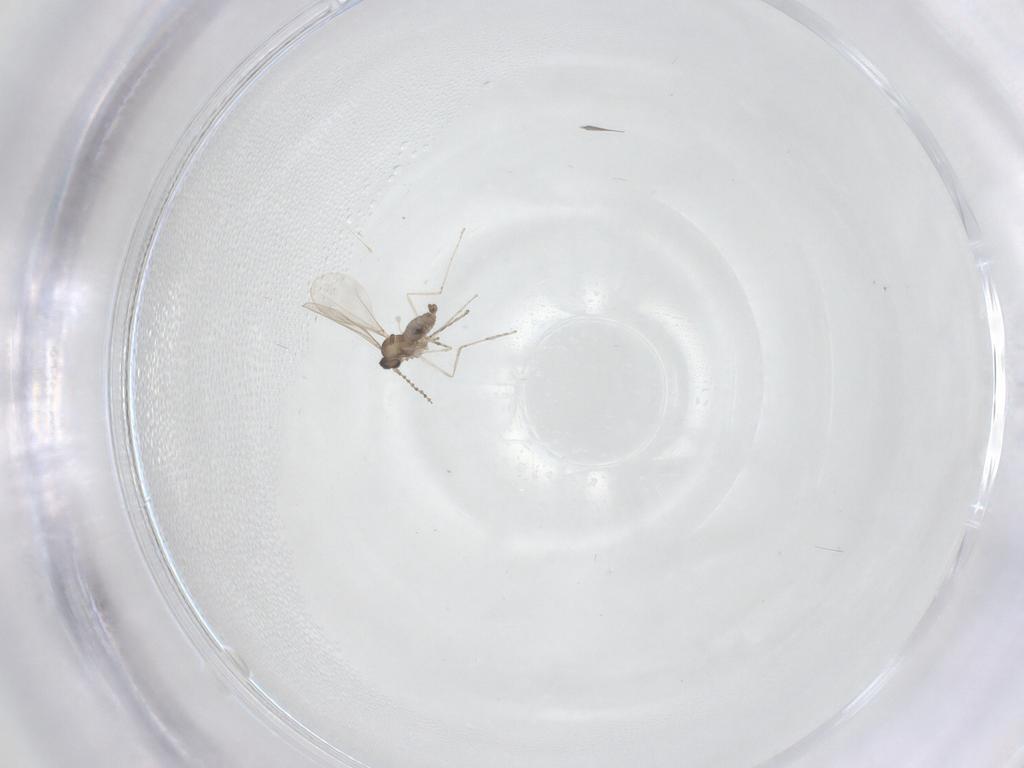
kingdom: Animalia
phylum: Arthropoda
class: Insecta
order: Diptera
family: Cecidomyiidae
